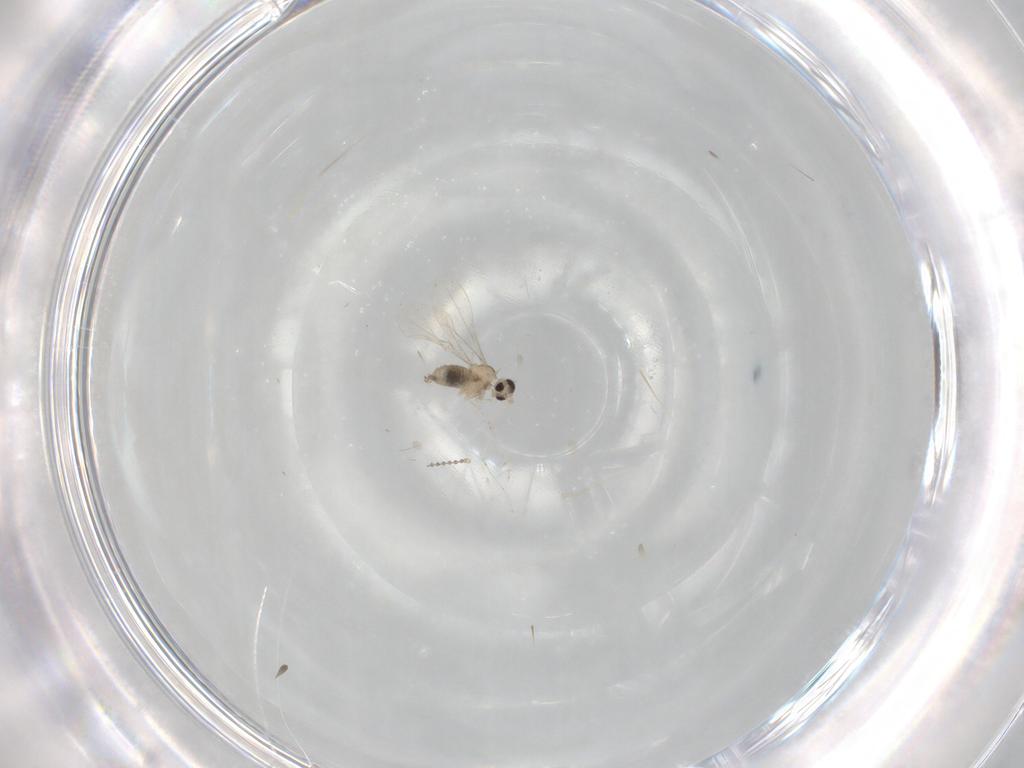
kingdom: Animalia
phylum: Arthropoda
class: Insecta
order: Diptera
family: Cecidomyiidae
